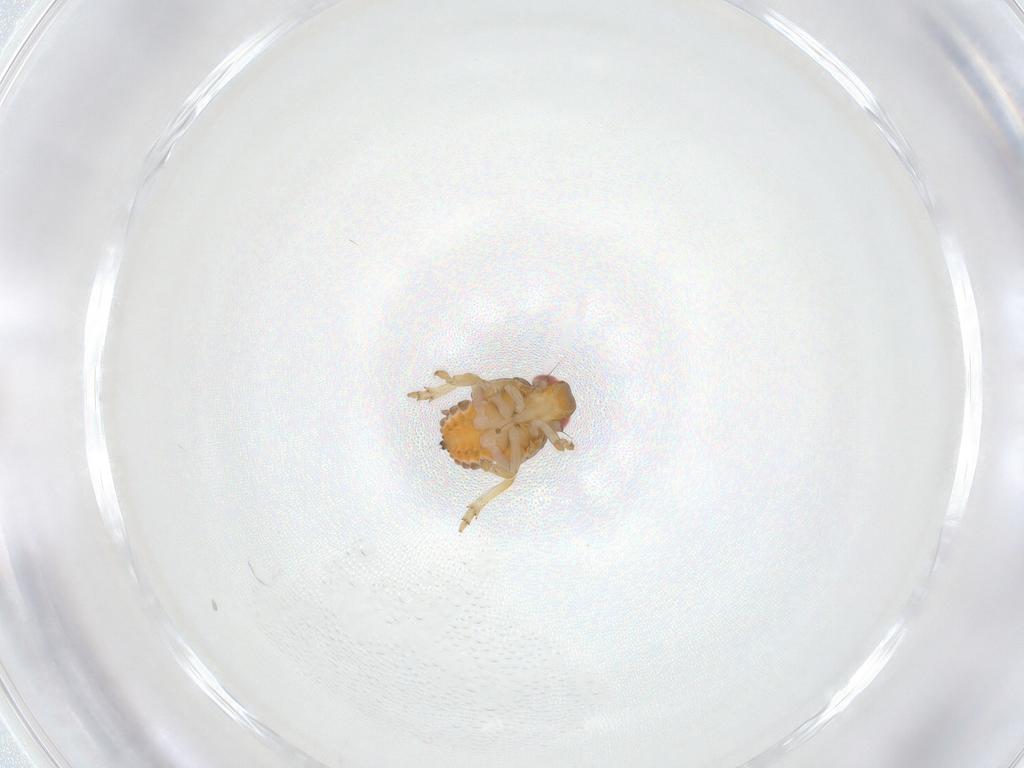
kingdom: Animalia
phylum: Arthropoda
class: Insecta
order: Hemiptera
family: Issidae
